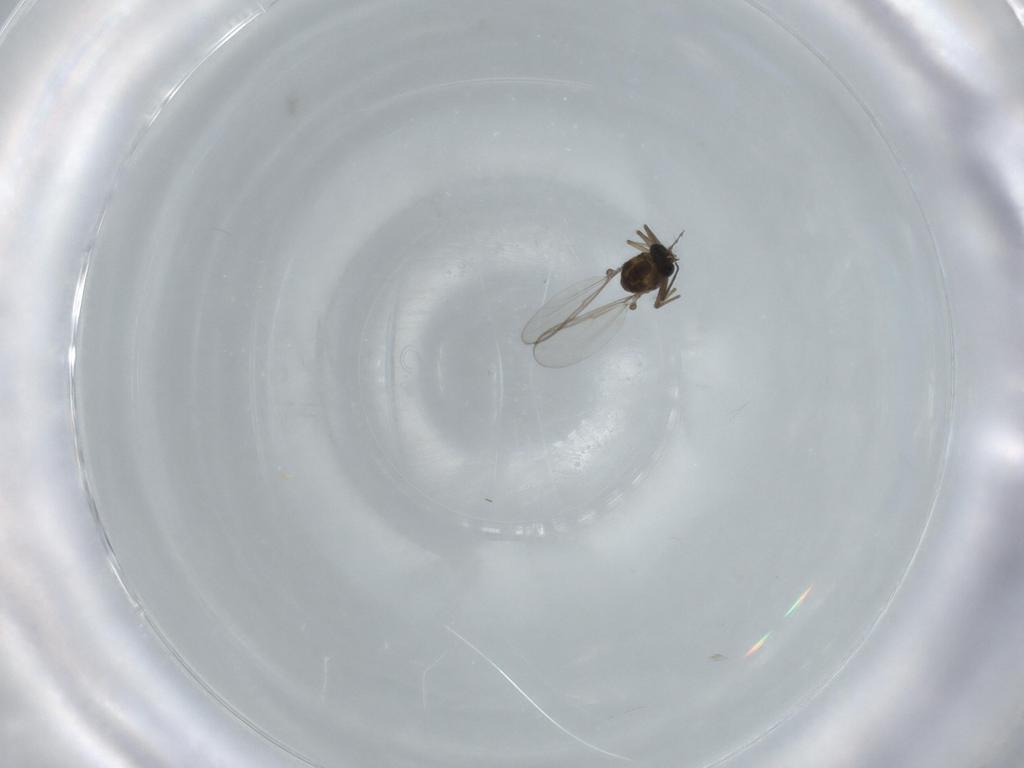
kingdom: Animalia
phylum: Arthropoda
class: Insecta
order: Diptera
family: Chironomidae
